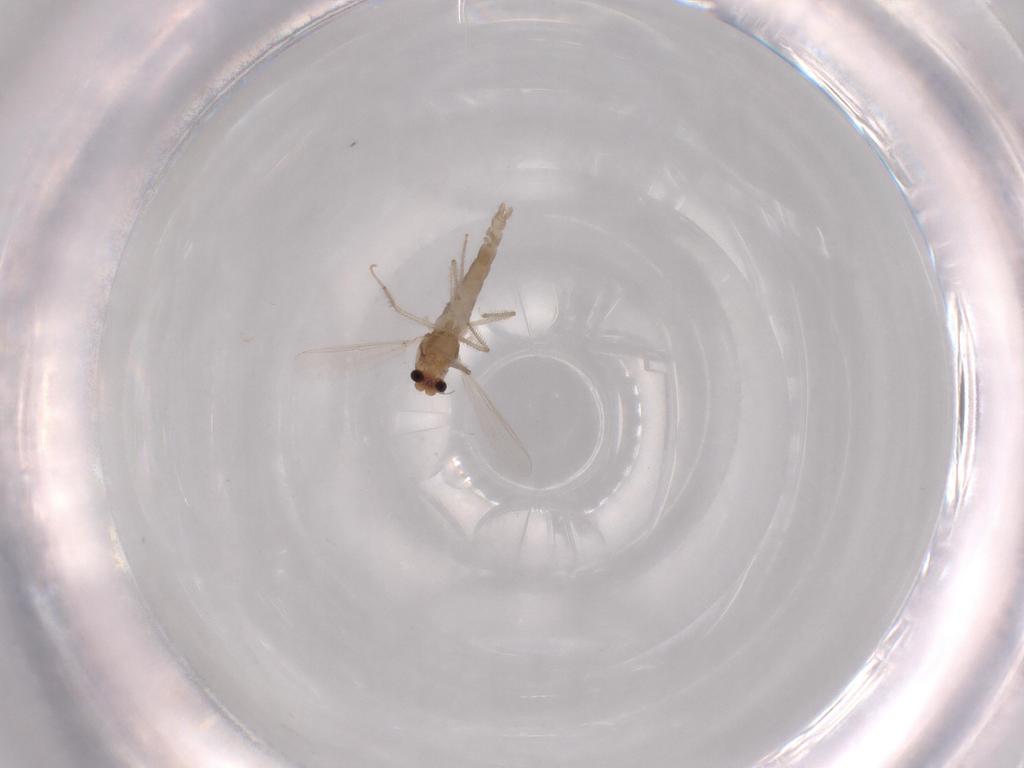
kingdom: Animalia
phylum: Arthropoda
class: Insecta
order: Diptera
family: Chironomidae
